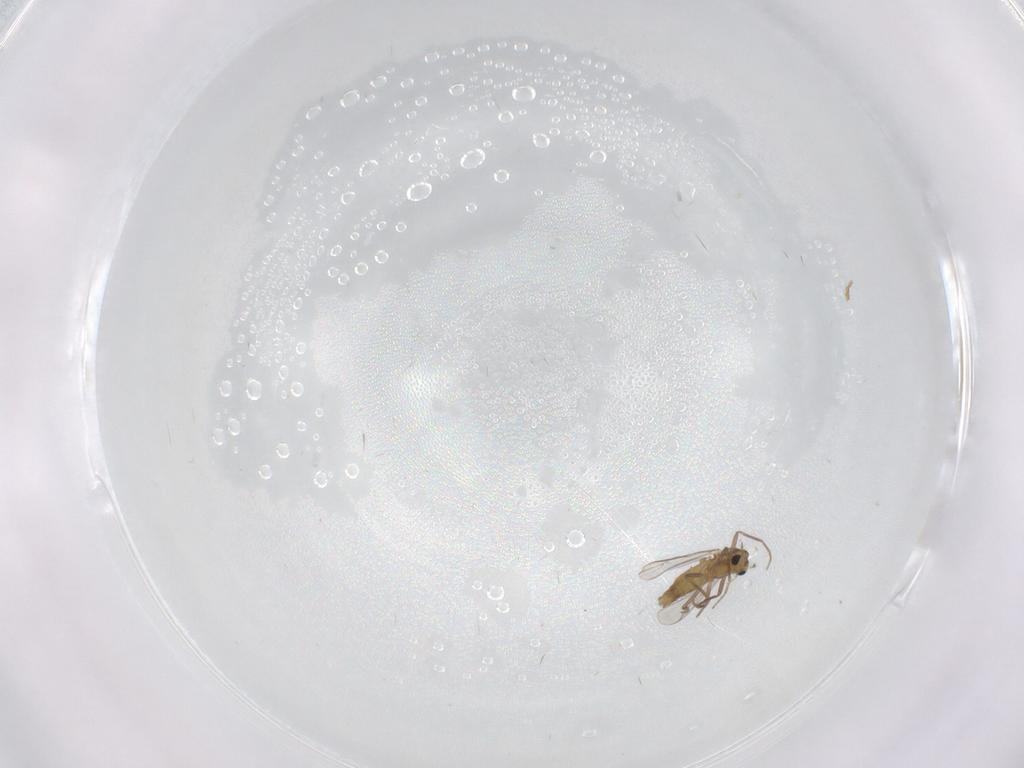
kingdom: Animalia
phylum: Arthropoda
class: Insecta
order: Diptera
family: Chironomidae
